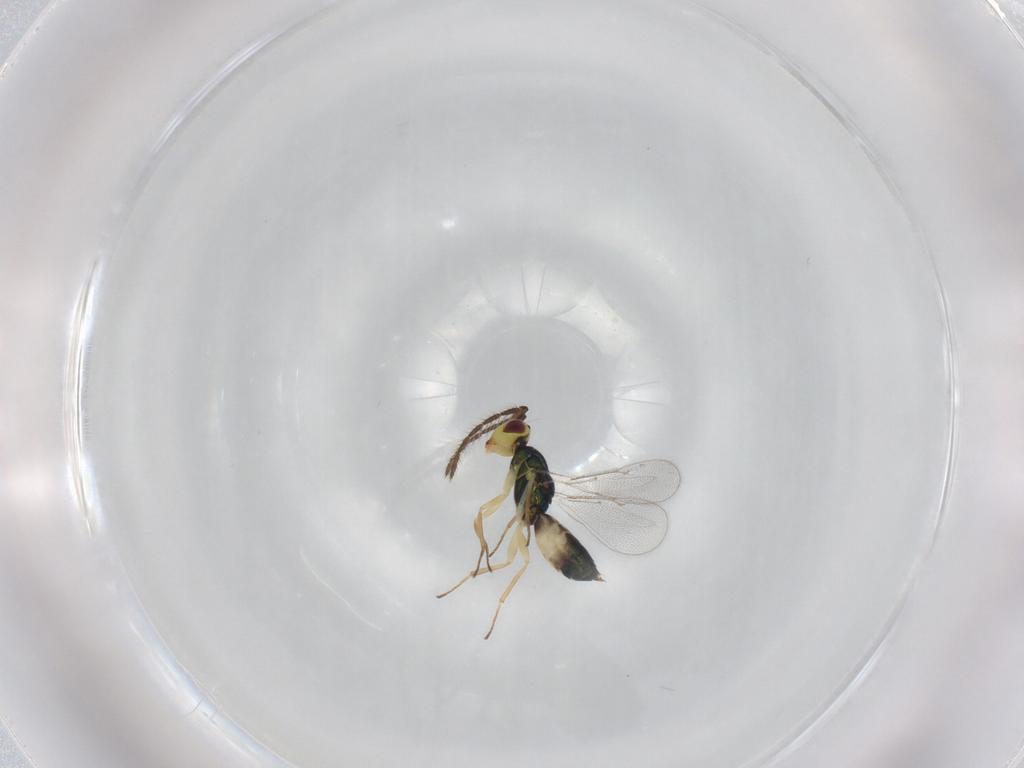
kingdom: Animalia
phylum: Arthropoda
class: Insecta
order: Hymenoptera
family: Eulophidae
